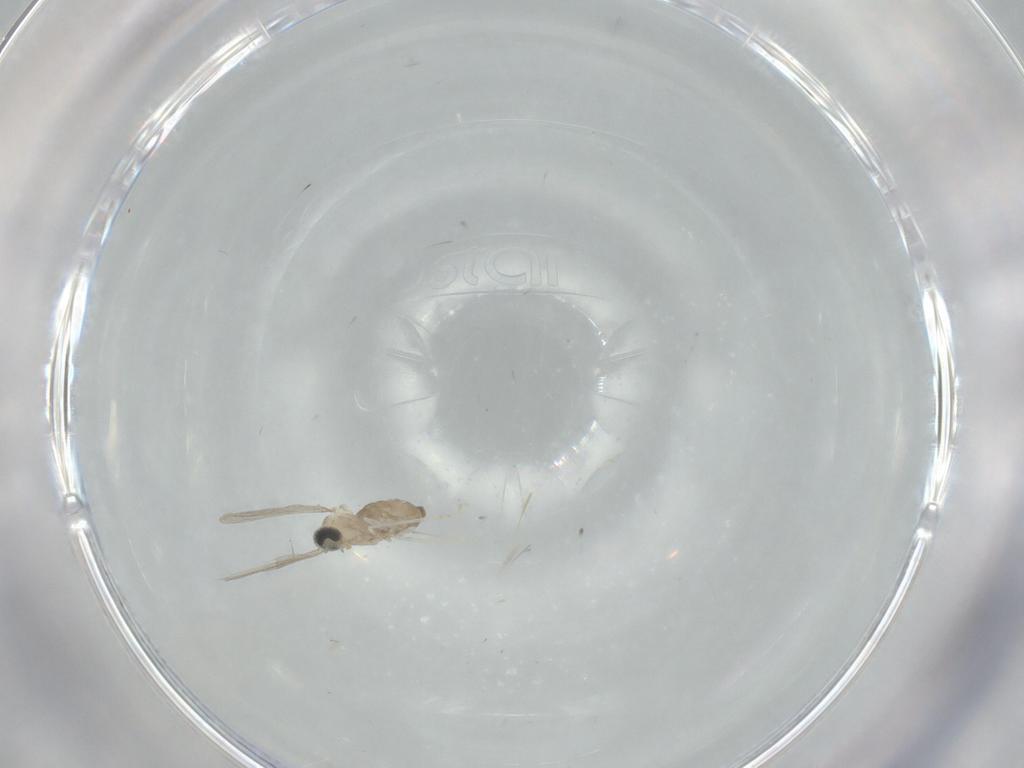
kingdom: Animalia
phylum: Arthropoda
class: Insecta
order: Diptera
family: Cecidomyiidae
